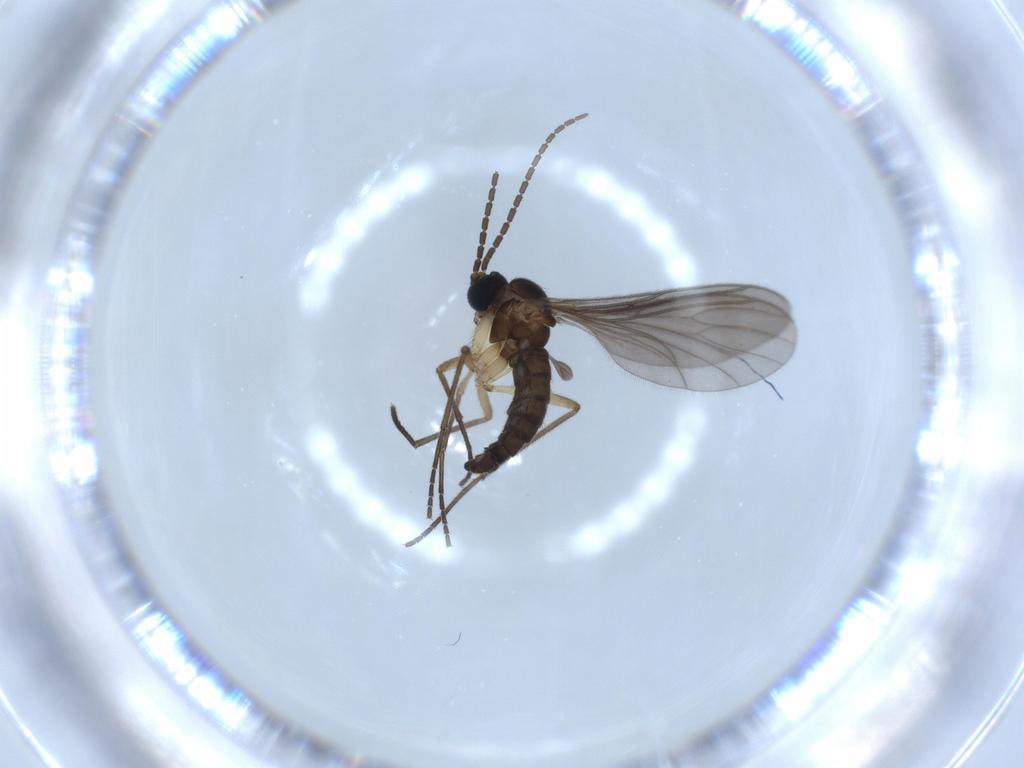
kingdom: Animalia
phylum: Arthropoda
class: Insecta
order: Diptera
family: Sciaridae
